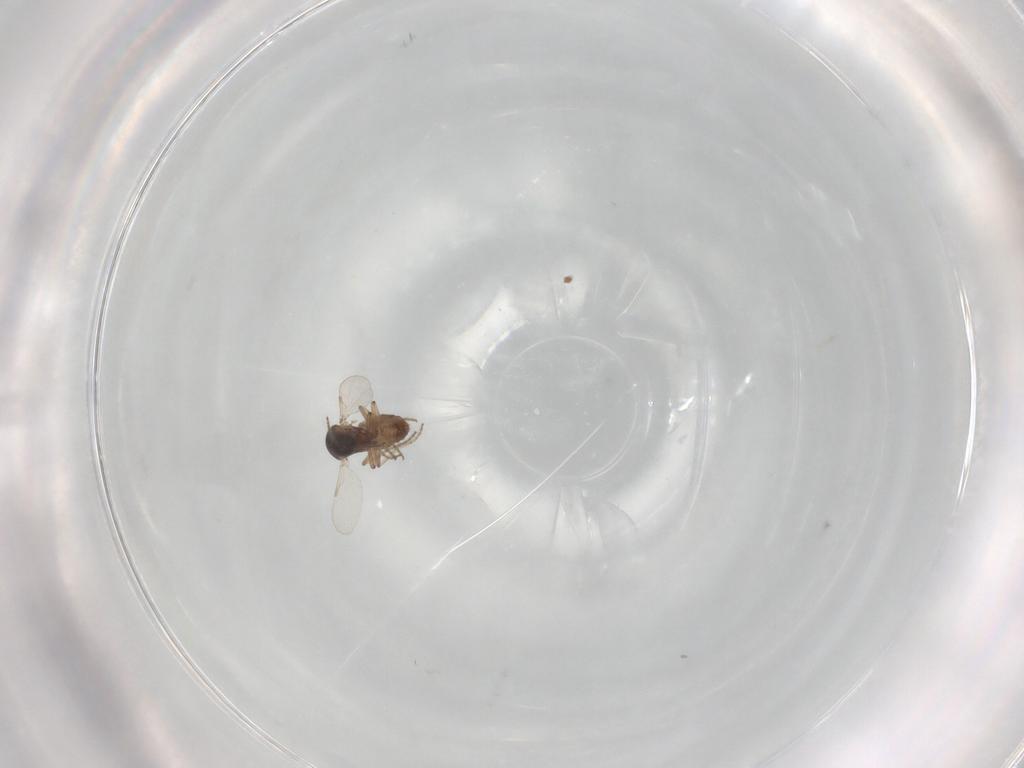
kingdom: Animalia
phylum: Arthropoda
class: Insecta
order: Diptera
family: Ceratopogonidae
